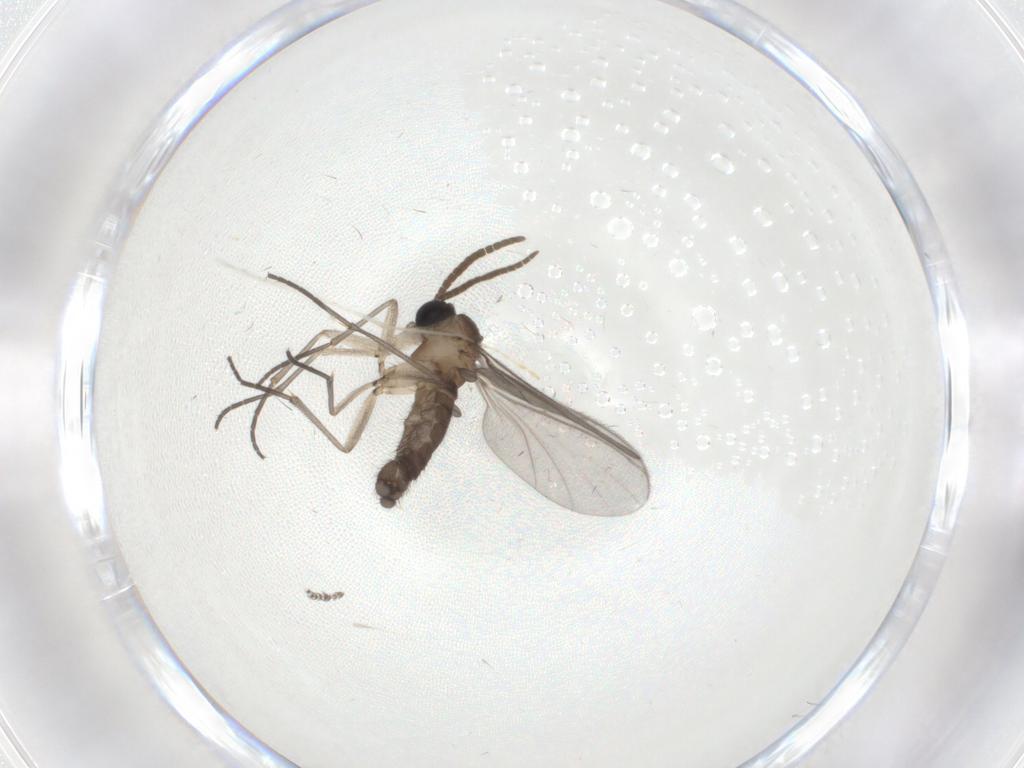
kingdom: Animalia
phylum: Arthropoda
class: Insecta
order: Diptera
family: Cecidomyiidae
